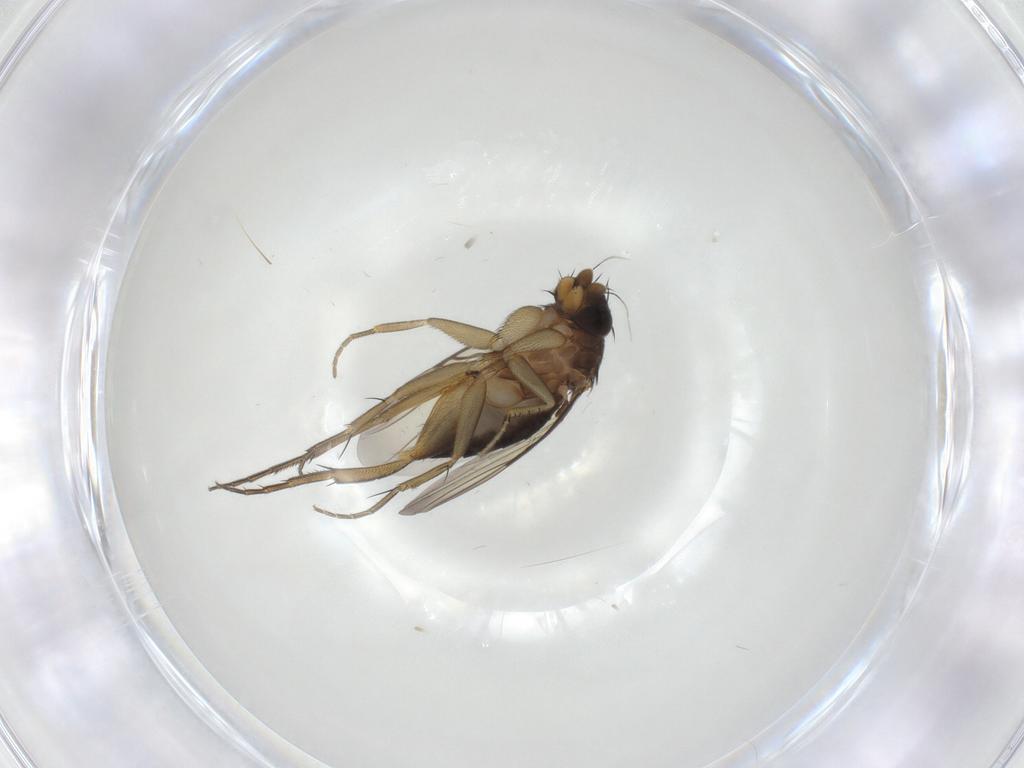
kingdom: Animalia
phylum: Arthropoda
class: Insecta
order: Diptera
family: Phoridae
